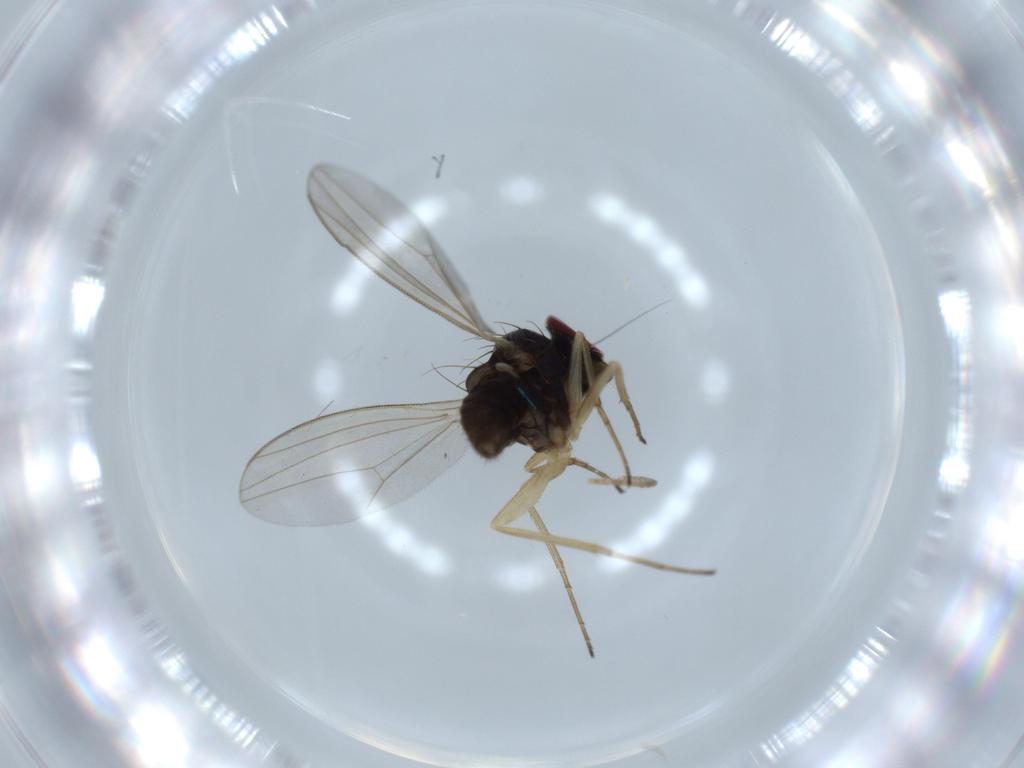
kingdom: Animalia
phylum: Arthropoda
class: Insecta
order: Diptera
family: Dolichopodidae
